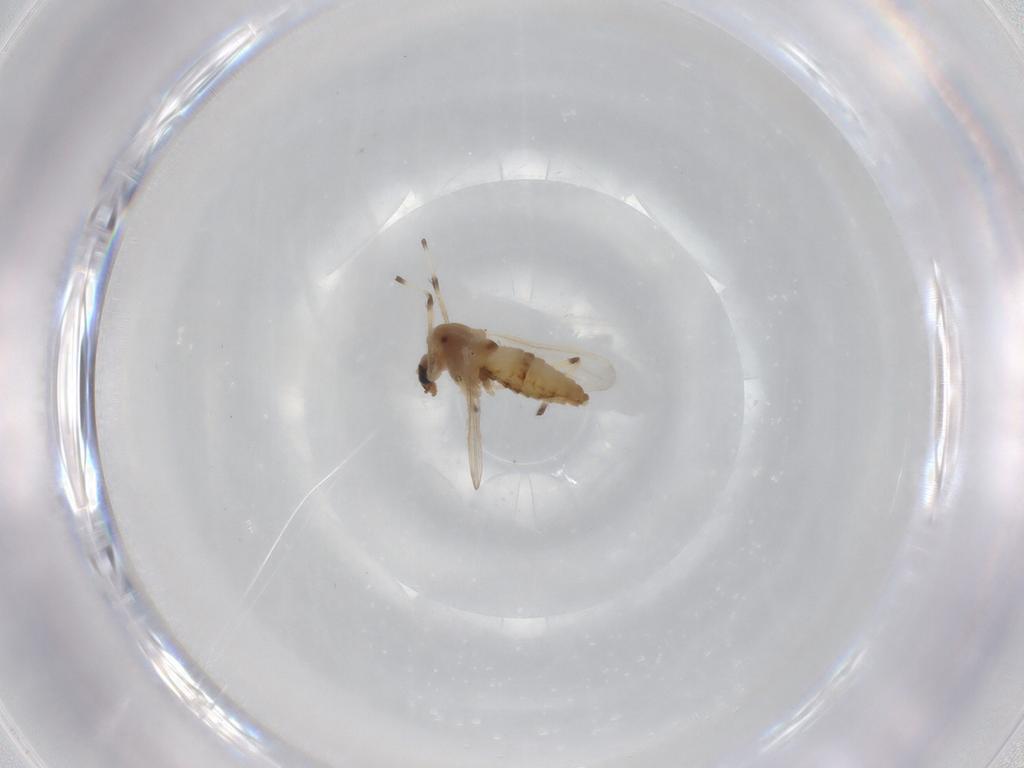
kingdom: Animalia
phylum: Arthropoda
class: Insecta
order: Diptera
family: Chironomidae
